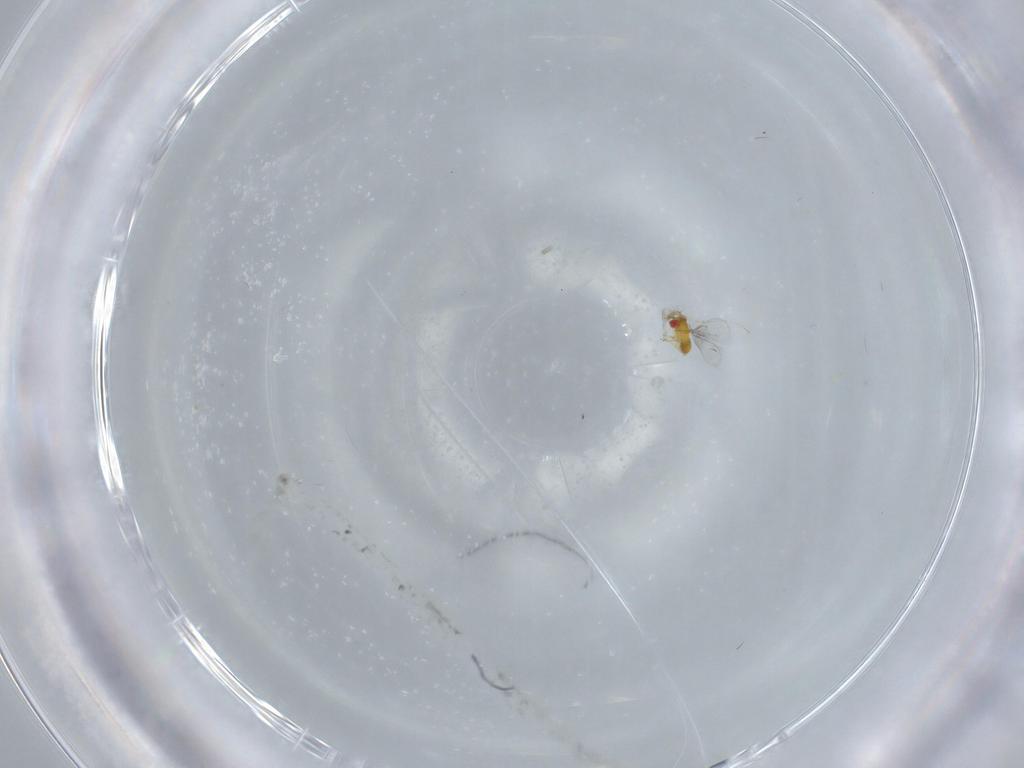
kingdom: Animalia
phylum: Arthropoda
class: Insecta
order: Hymenoptera
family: Trichogrammatidae
